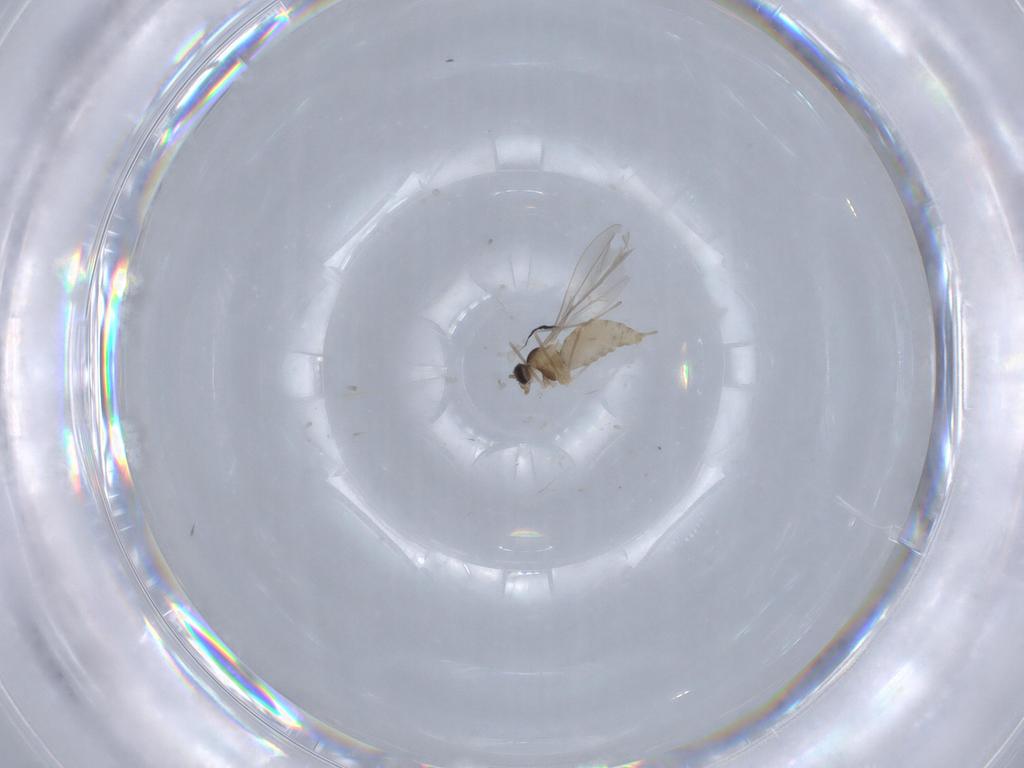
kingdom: Animalia
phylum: Arthropoda
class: Insecta
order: Diptera
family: Cecidomyiidae
